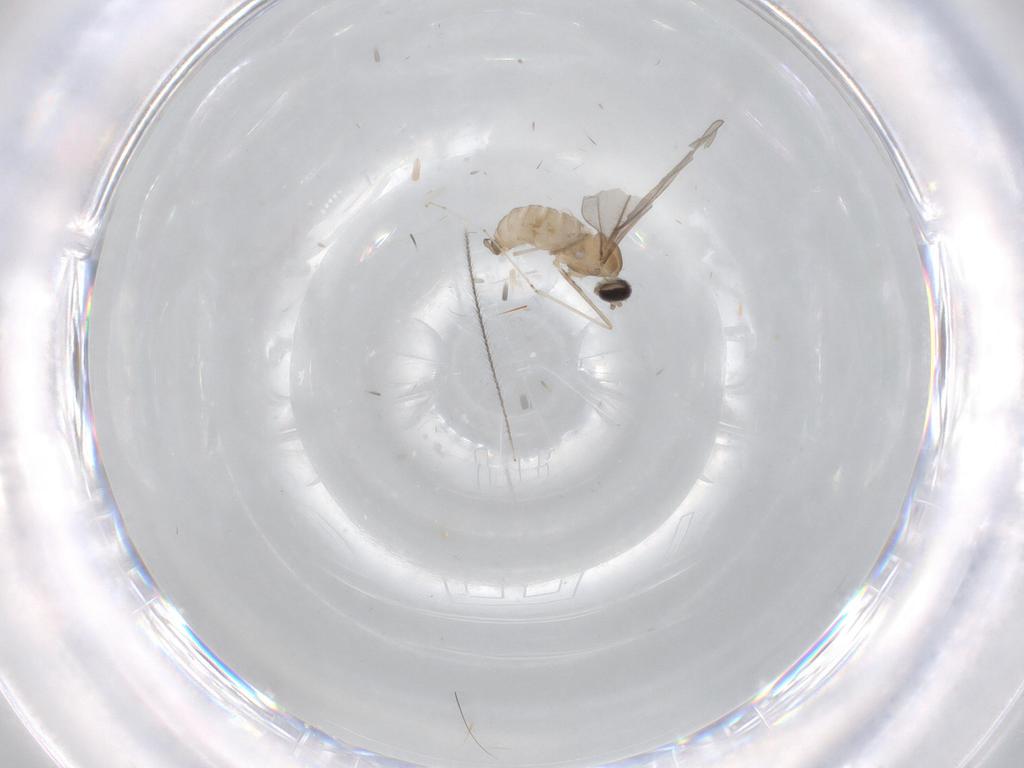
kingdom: Animalia
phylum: Arthropoda
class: Insecta
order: Diptera
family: Cecidomyiidae
